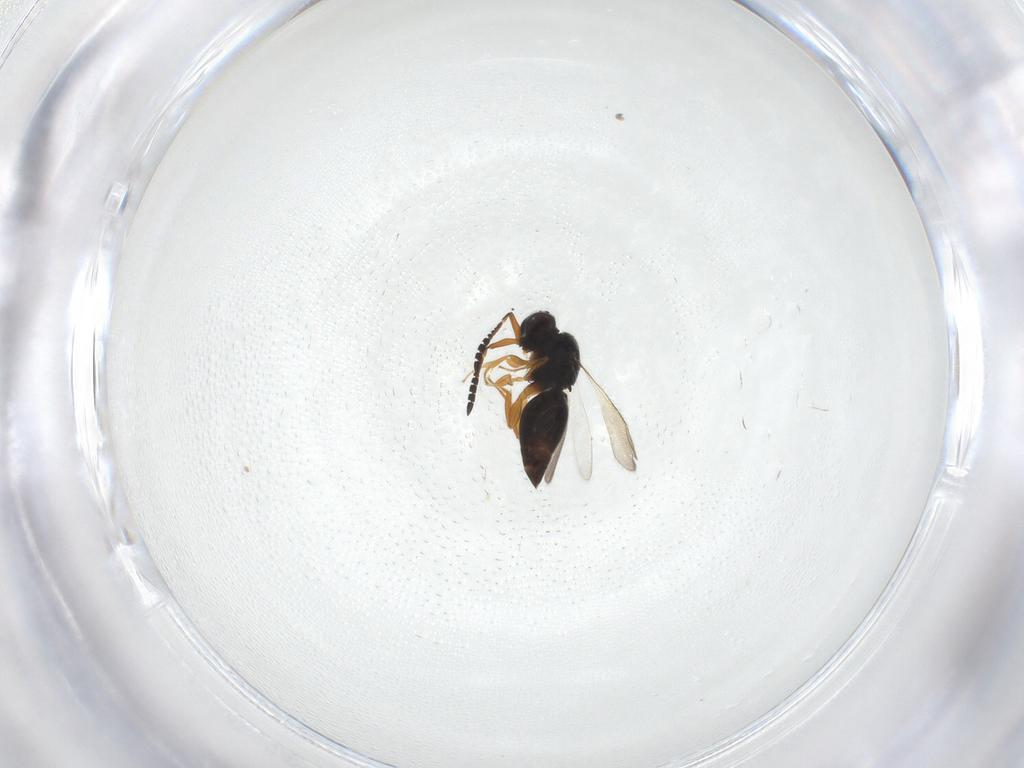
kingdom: Animalia
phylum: Arthropoda
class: Insecta
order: Hymenoptera
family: Ceraphronidae
